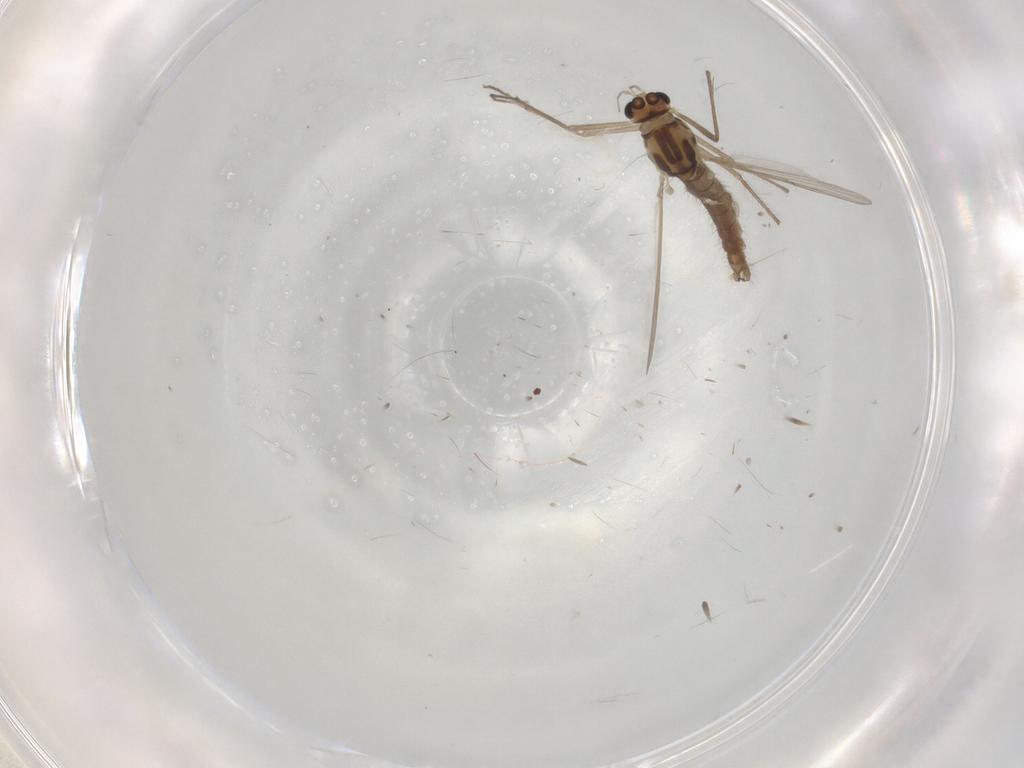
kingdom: Animalia
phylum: Arthropoda
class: Insecta
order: Diptera
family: Chironomidae
